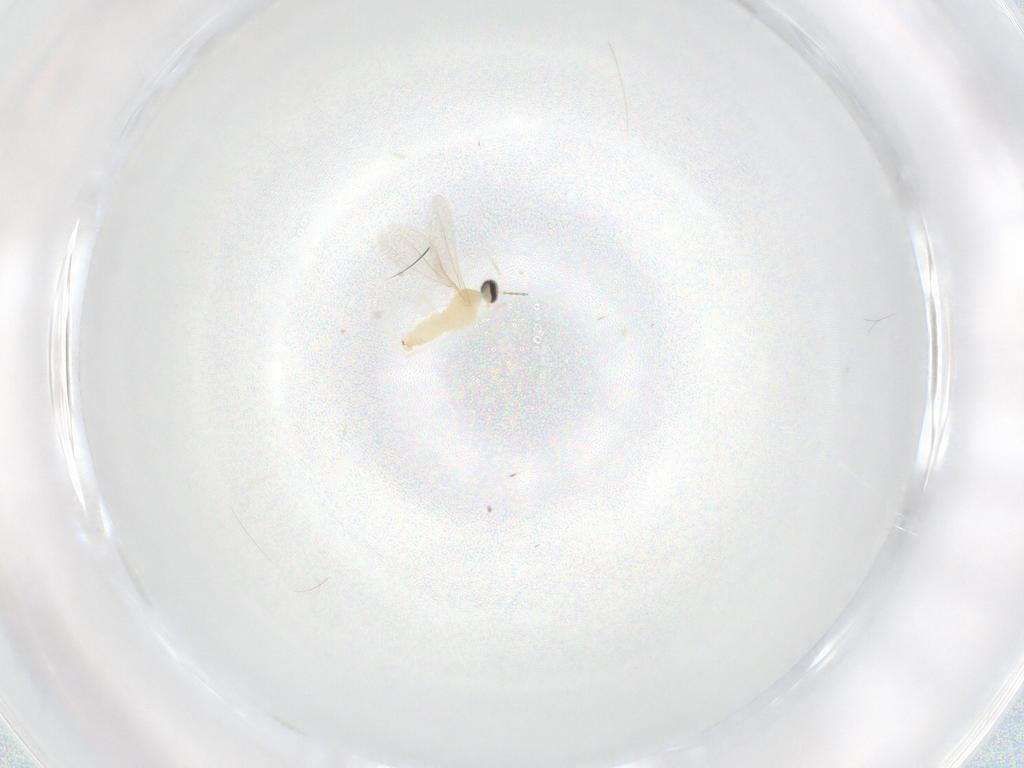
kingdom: Animalia
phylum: Arthropoda
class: Insecta
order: Diptera
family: Cecidomyiidae
